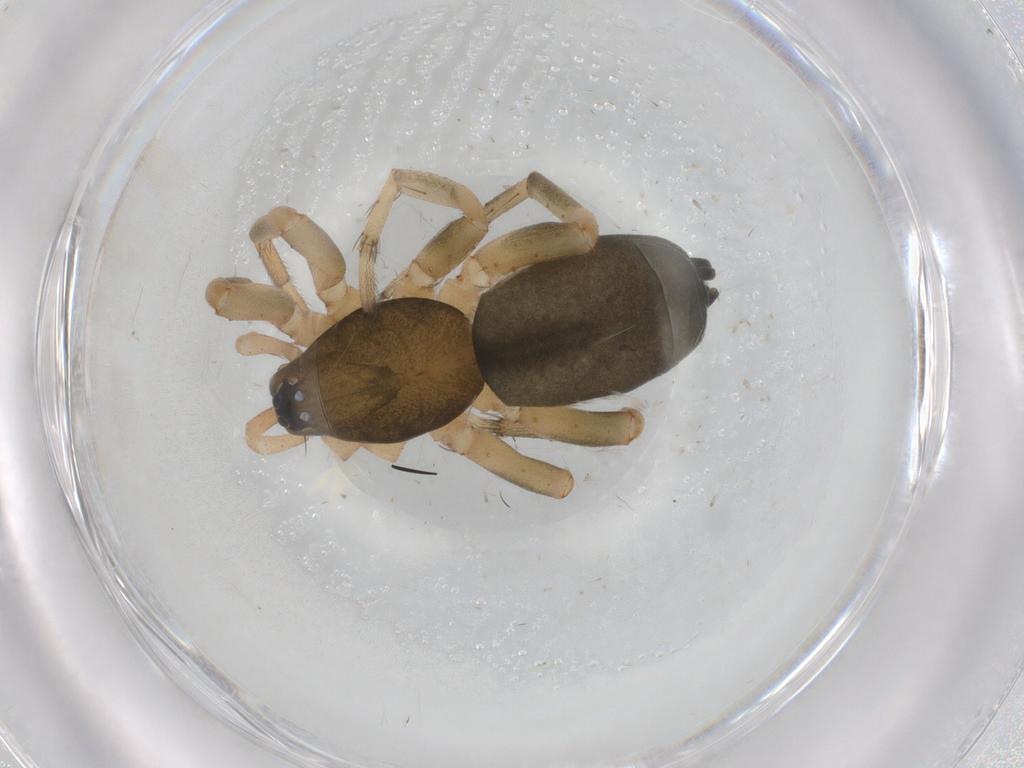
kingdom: Animalia
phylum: Arthropoda
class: Arachnida
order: Araneae
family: Gnaphosidae
